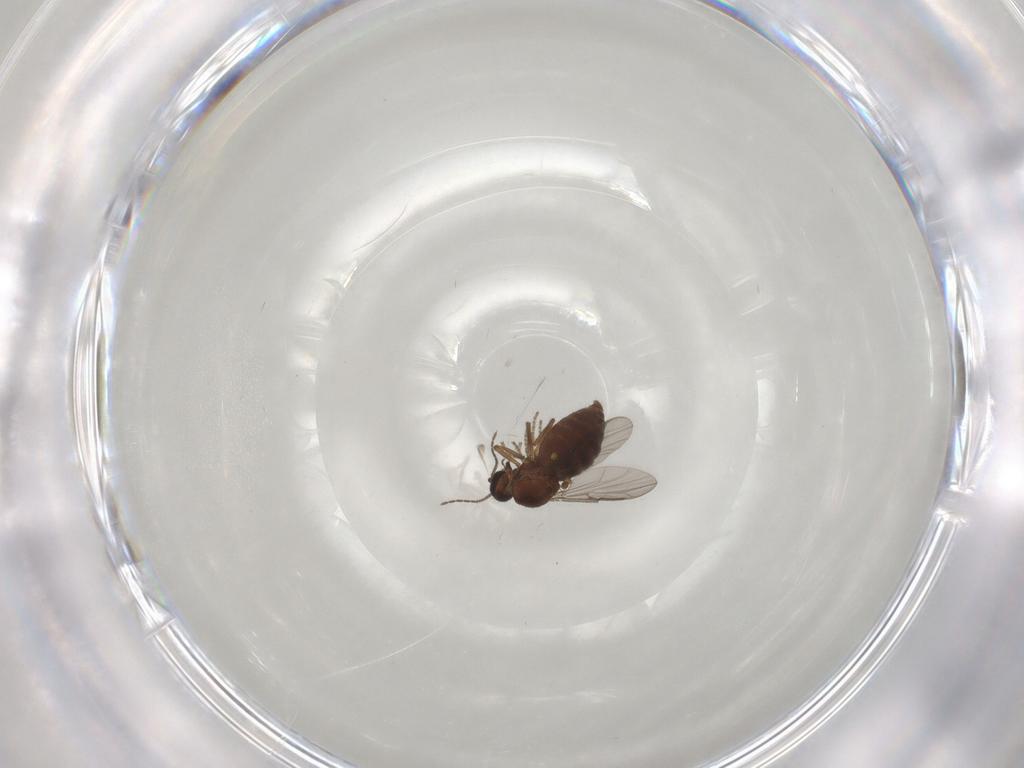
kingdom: Animalia
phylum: Arthropoda
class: Insecta
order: Diptera
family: Ceratopogonidae
